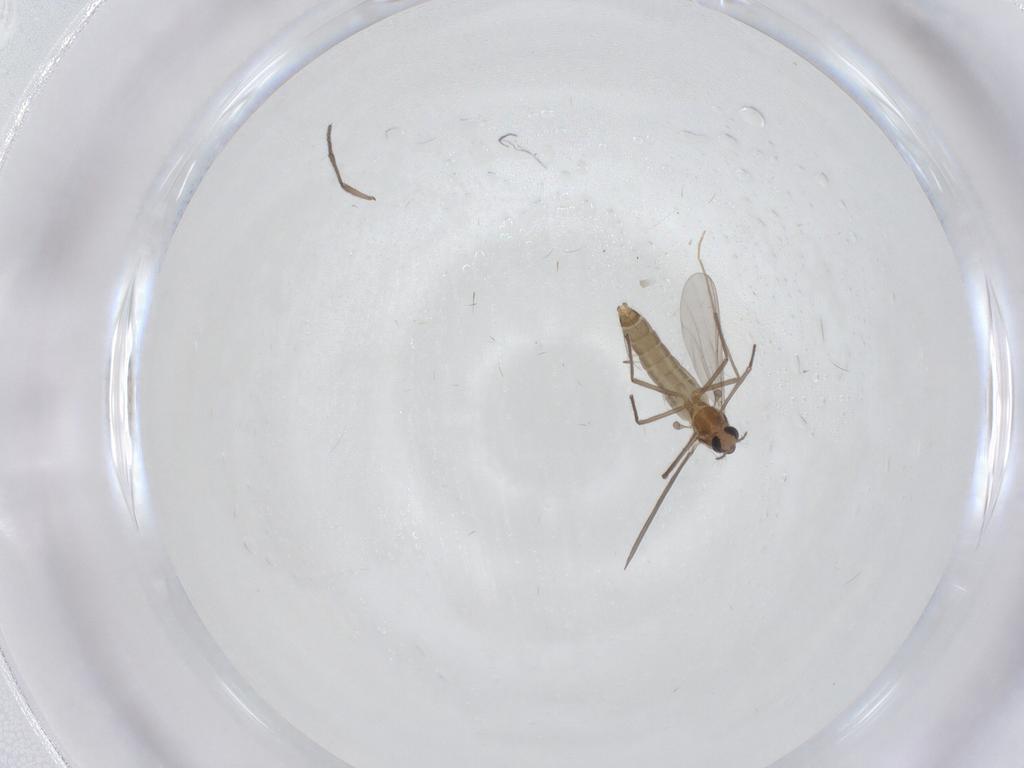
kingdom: Animalia
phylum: Arthropoda
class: Insecta
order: Diptera
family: Sciaridae
